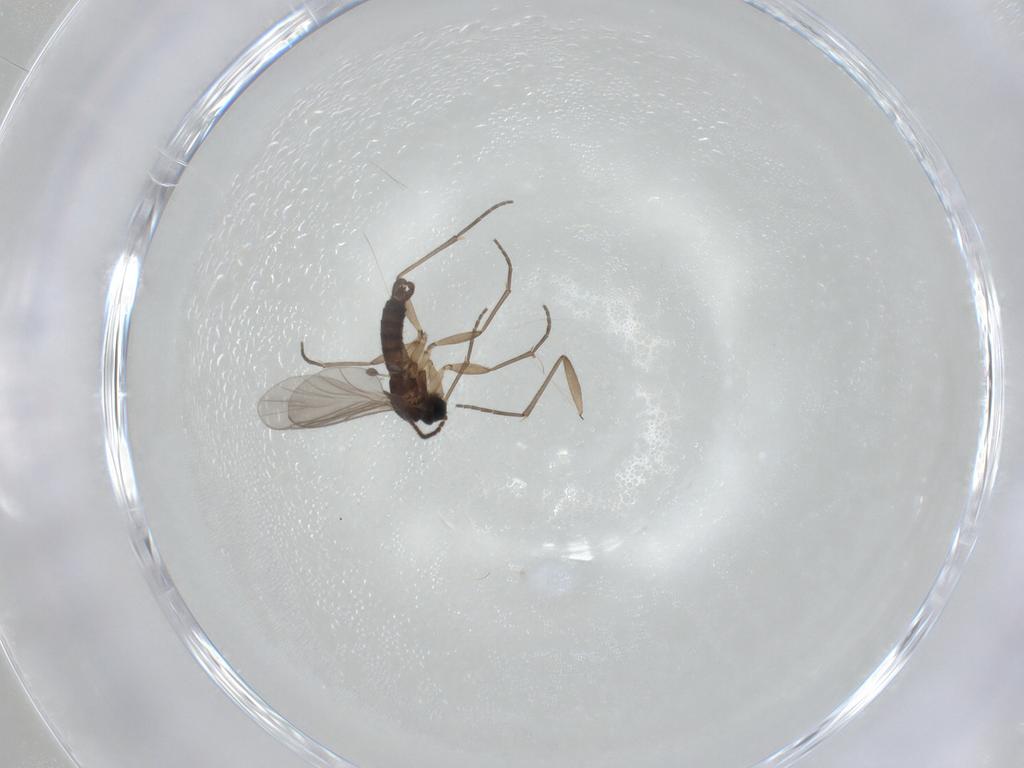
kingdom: Animalia
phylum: Arthropoda
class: Insecta
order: Diptera
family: Cecidomyiidae
